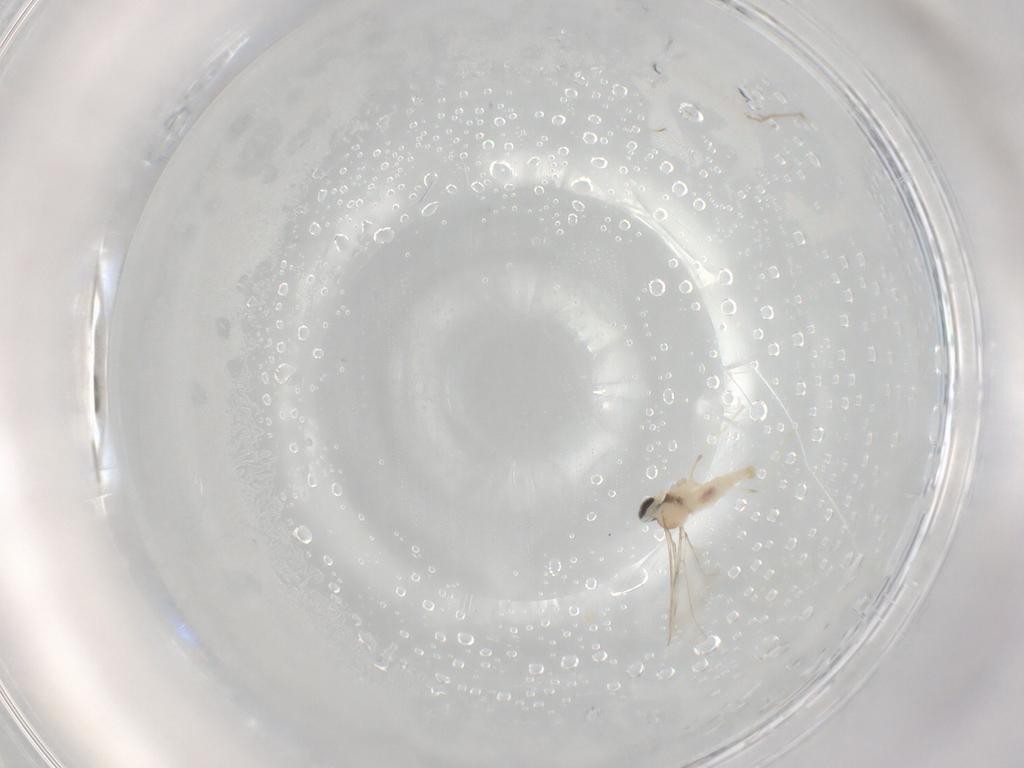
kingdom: Animalia
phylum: Arthropoda
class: Insecta
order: Diptera
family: Cecidomyiidae
